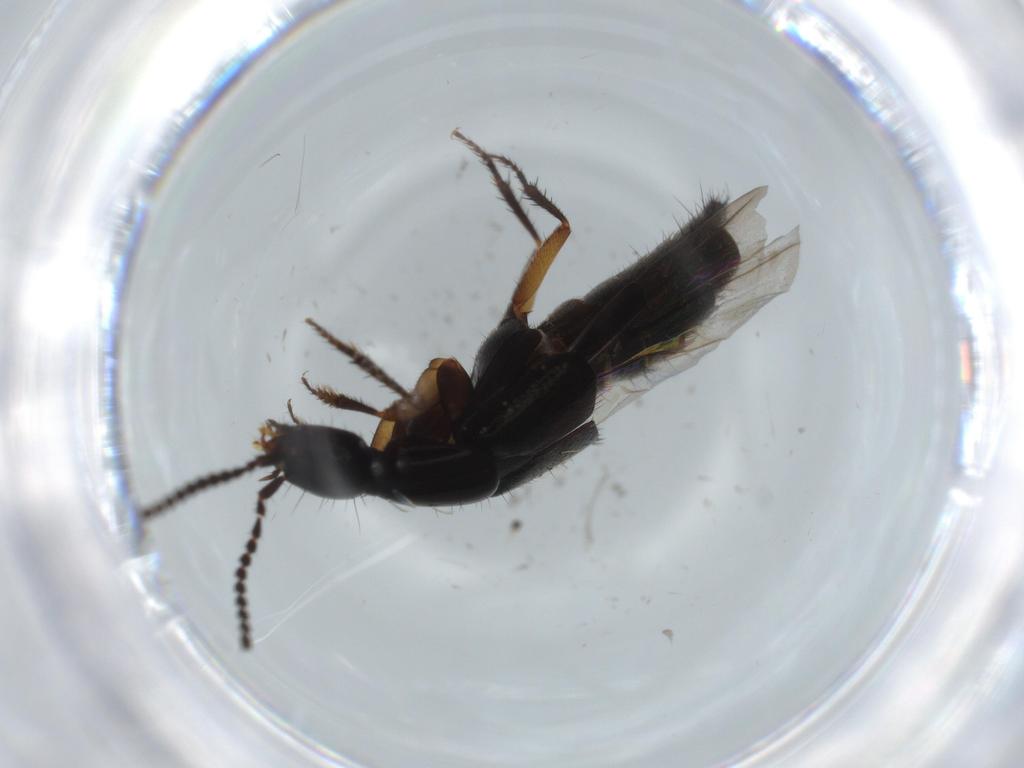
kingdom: Animalia
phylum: Arthropoda
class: Insecta
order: Coleoptera
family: Staphylinidae
